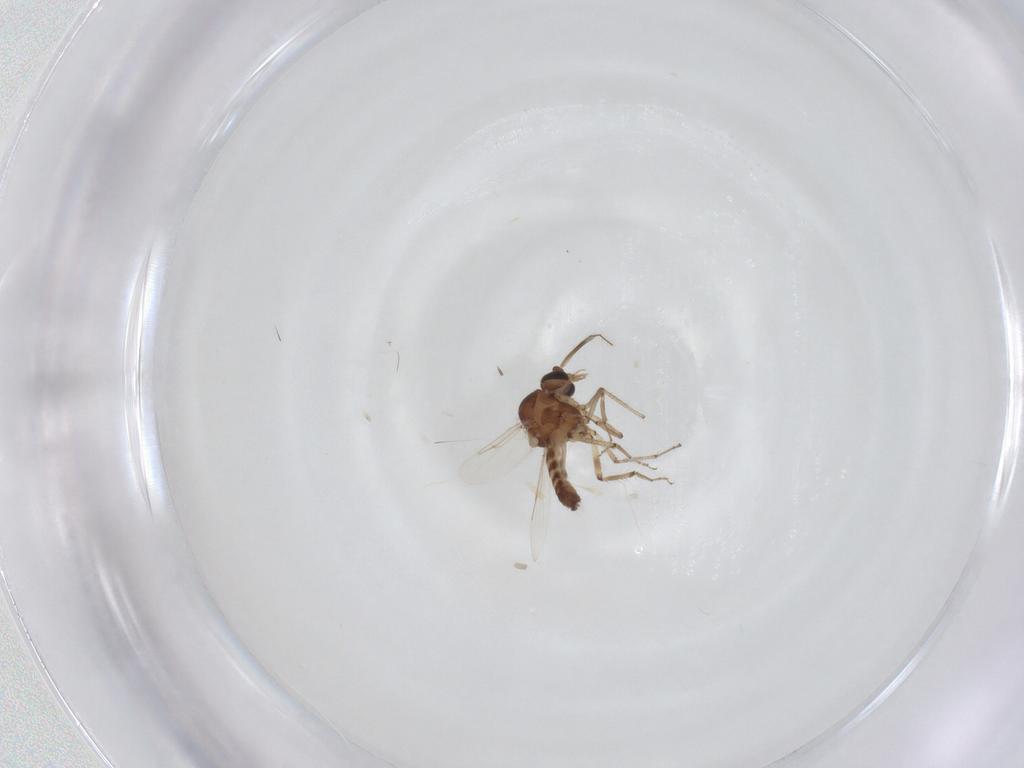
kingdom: Animalia
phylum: Arthropoda
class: Insecta
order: Diptera
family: Ceratopogonidae
